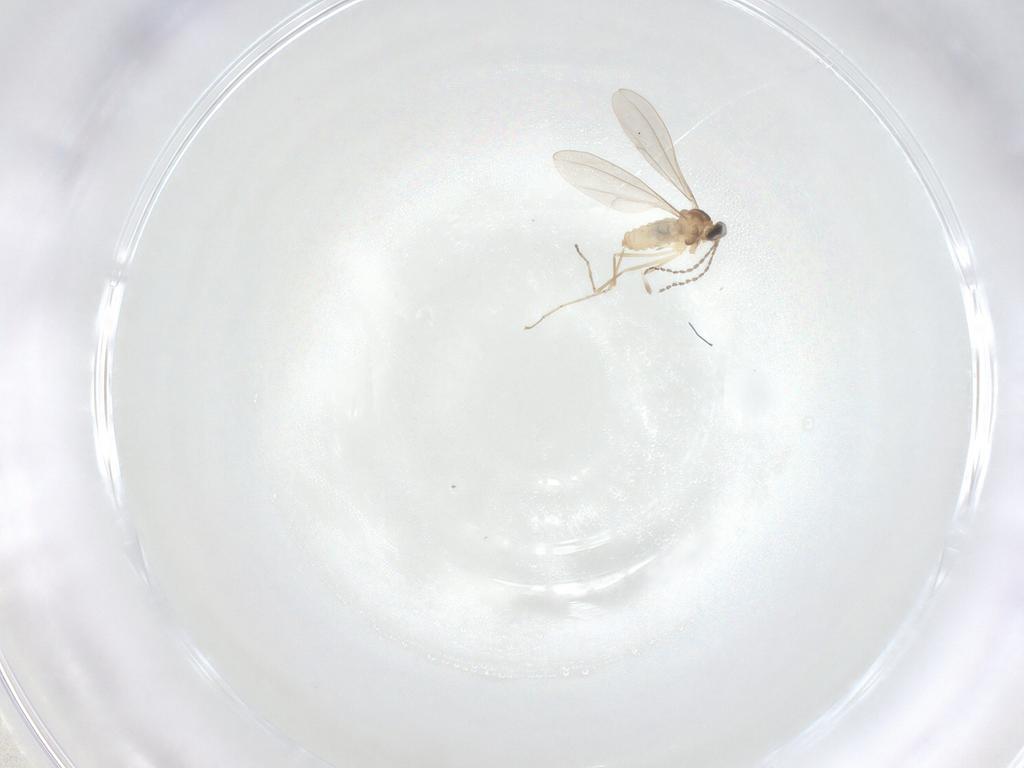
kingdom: Animalia
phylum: Arthropoda
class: Insecta
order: Diptera
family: Cecidomyiidae
